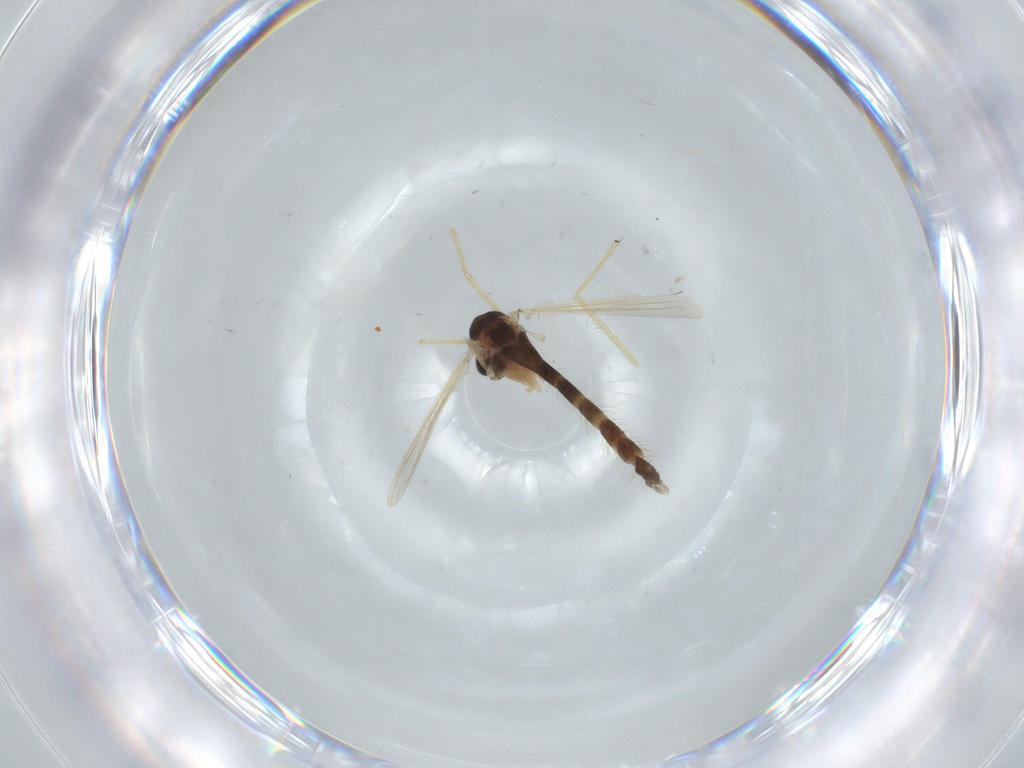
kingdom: Animalia
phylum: Arthropoda
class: Insecta
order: Diptera
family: Chironomidae
